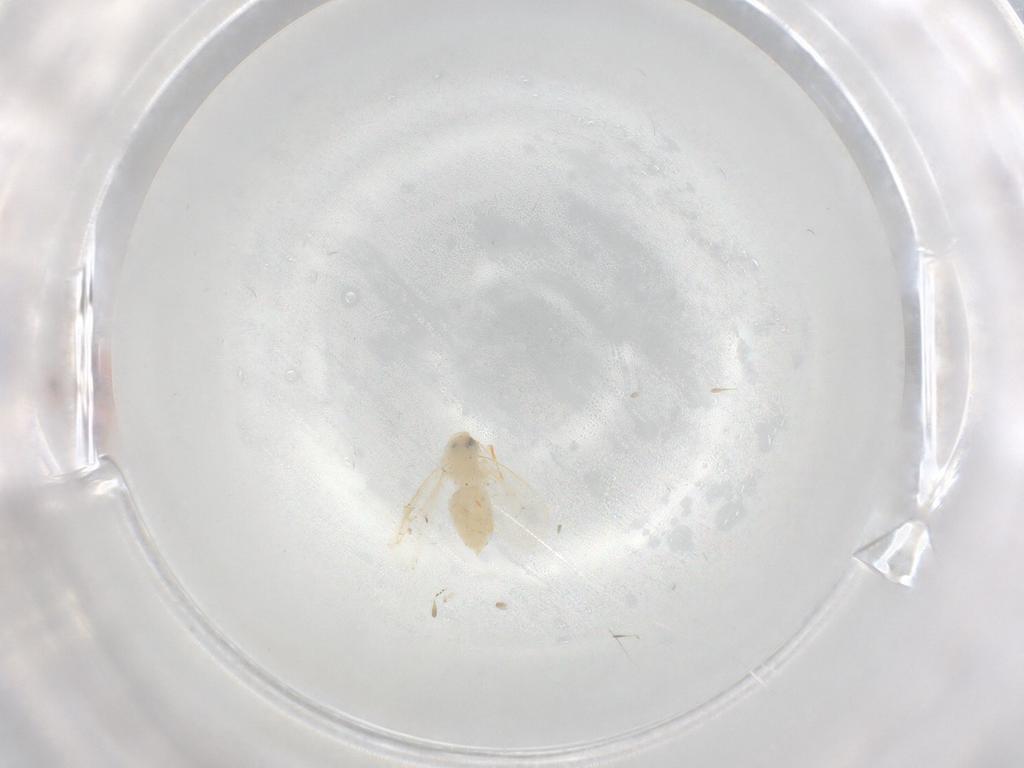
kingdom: Animalia
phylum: Arthropoda
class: Insecta
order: Hemiptera
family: Aleyrodidae
